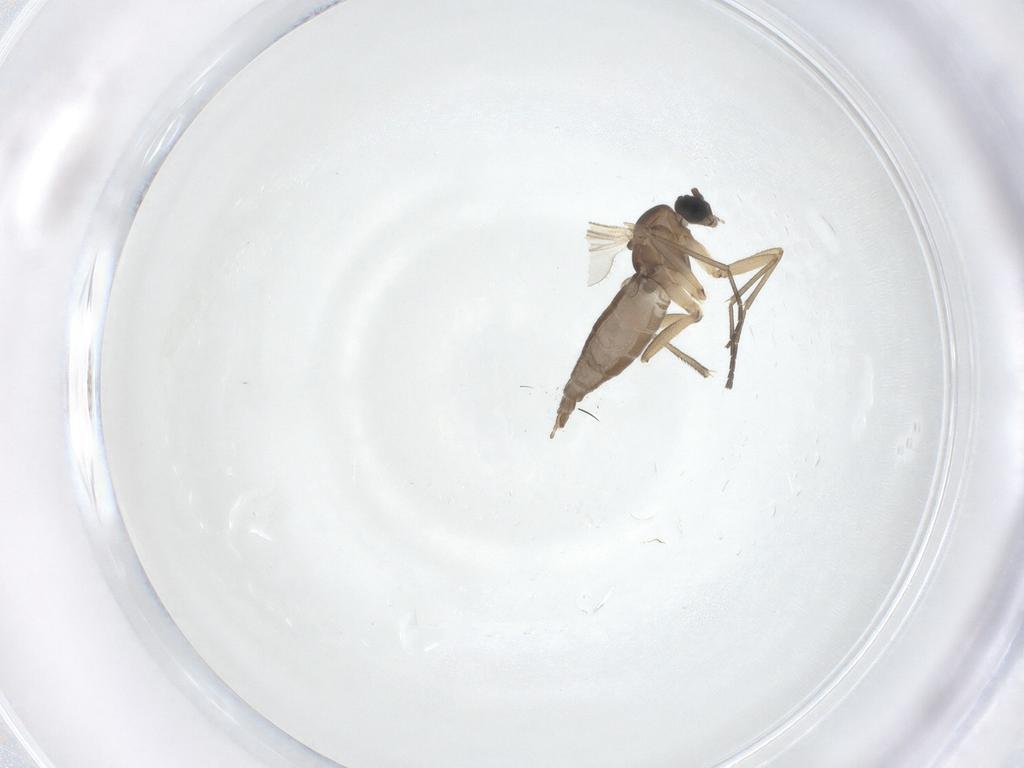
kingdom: Animalia
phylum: Arthropoda
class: Insecta
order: Diptera
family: Sciaridae
